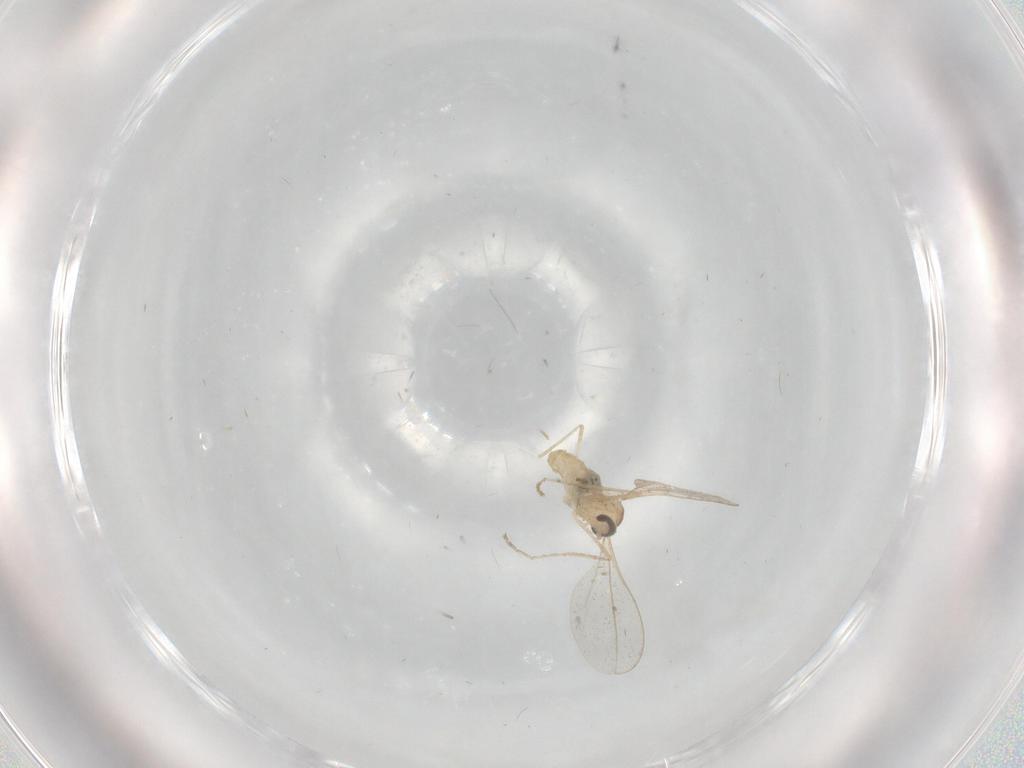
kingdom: Animalia
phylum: Arthropoda
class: Insecta
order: Diptera
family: Cecidomyiidae
